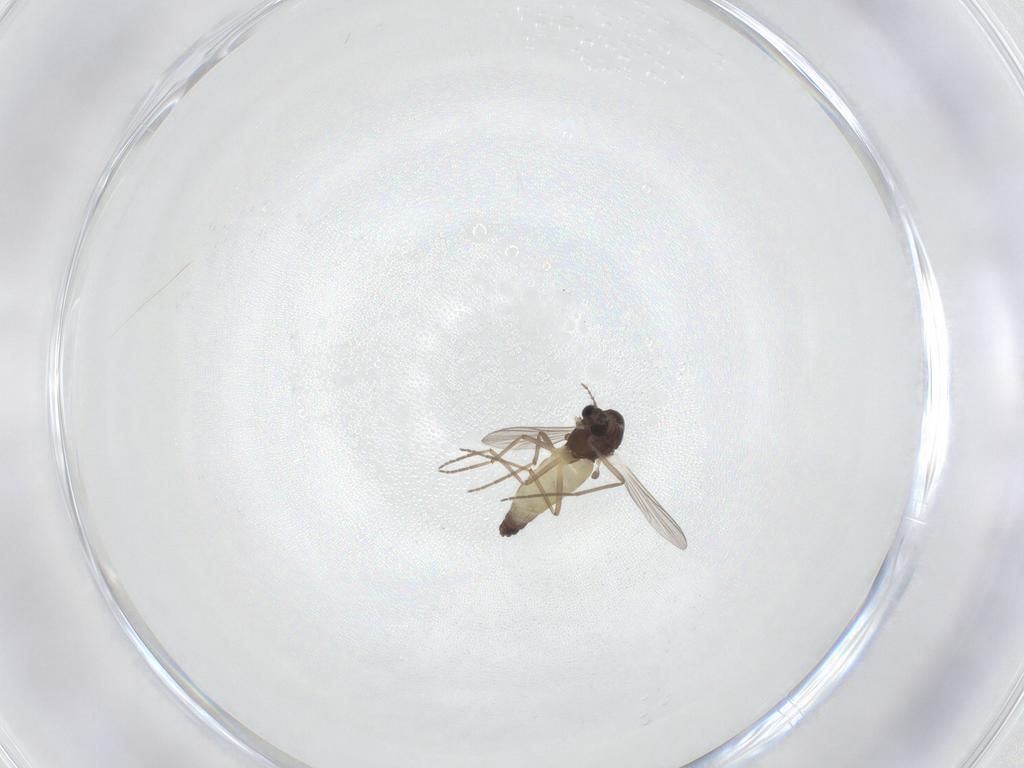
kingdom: Animalia
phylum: Arthropoda
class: Insecta
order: Diptera
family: Chironomidae
